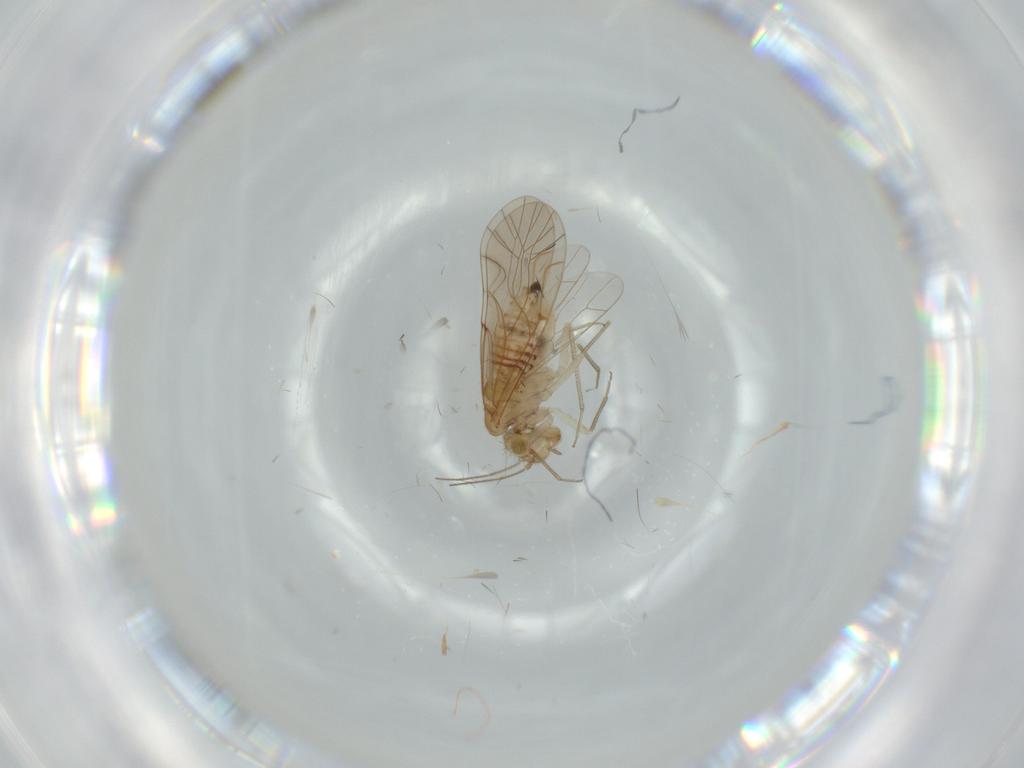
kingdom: Animalia
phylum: Arthropoda
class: Insecta
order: Psocodea
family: Lachesillidae
